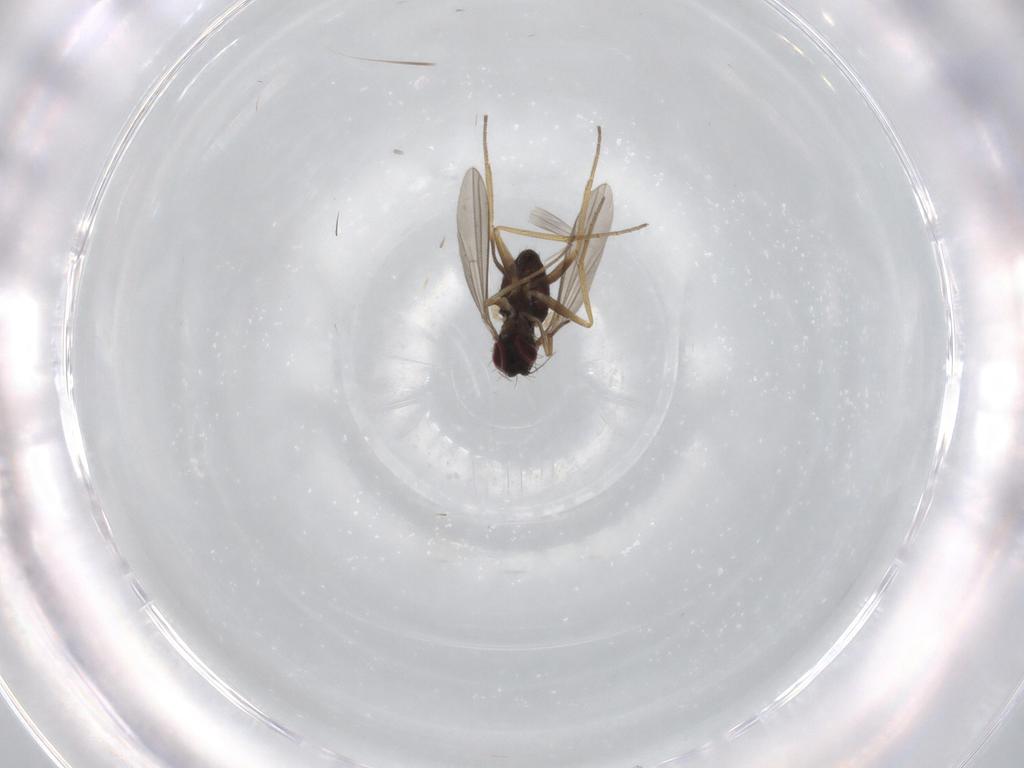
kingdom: Animalia
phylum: Arthropoda
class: Insecta
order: Diptera
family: Dolichopodidae
